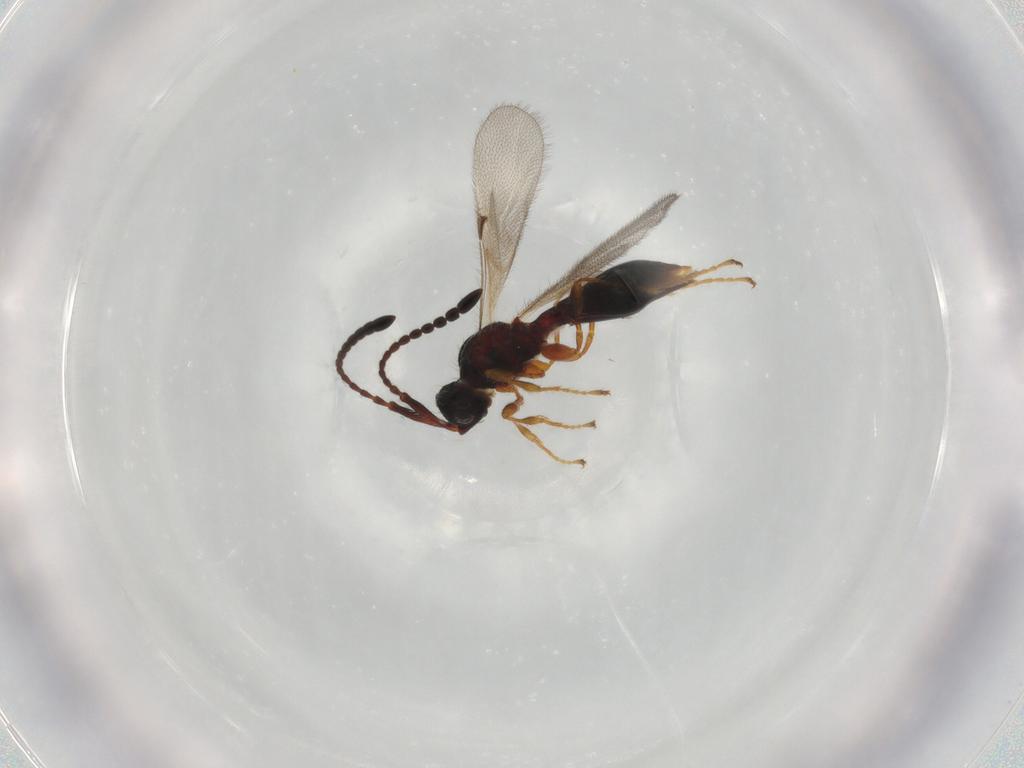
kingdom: Animalia
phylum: Arthropoda
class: Insecta
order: Hymenoptera
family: Diapriidae
